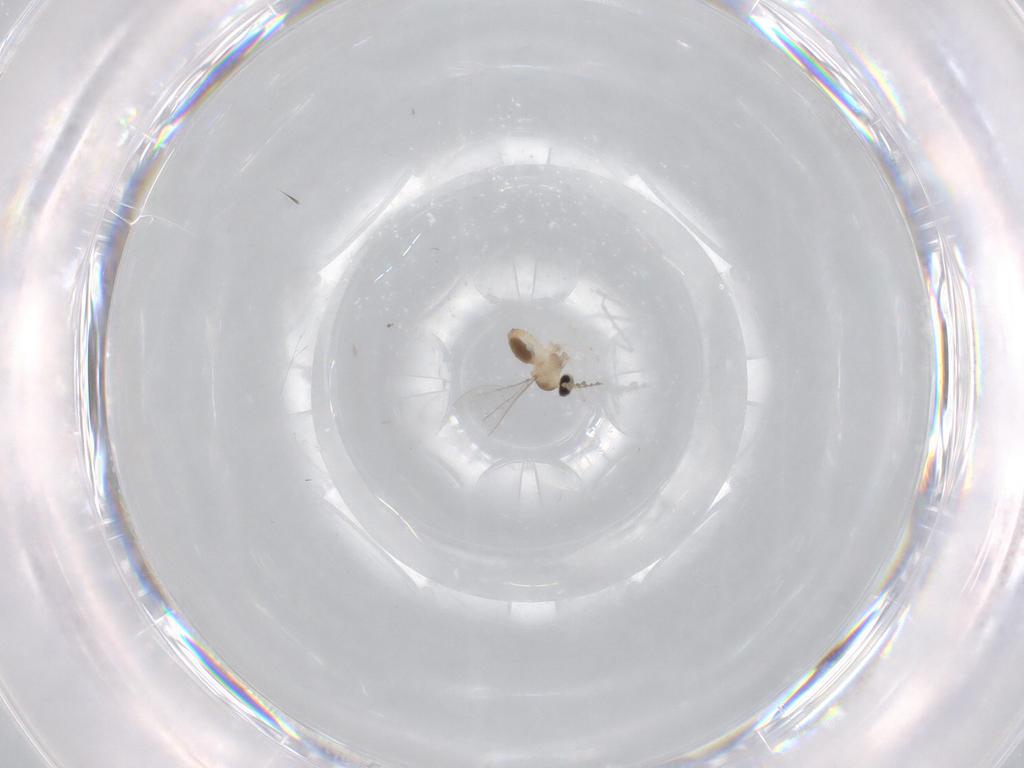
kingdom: Animalia
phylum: Arthropoda
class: Insecta
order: Diptera
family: Cecidomyiidae
